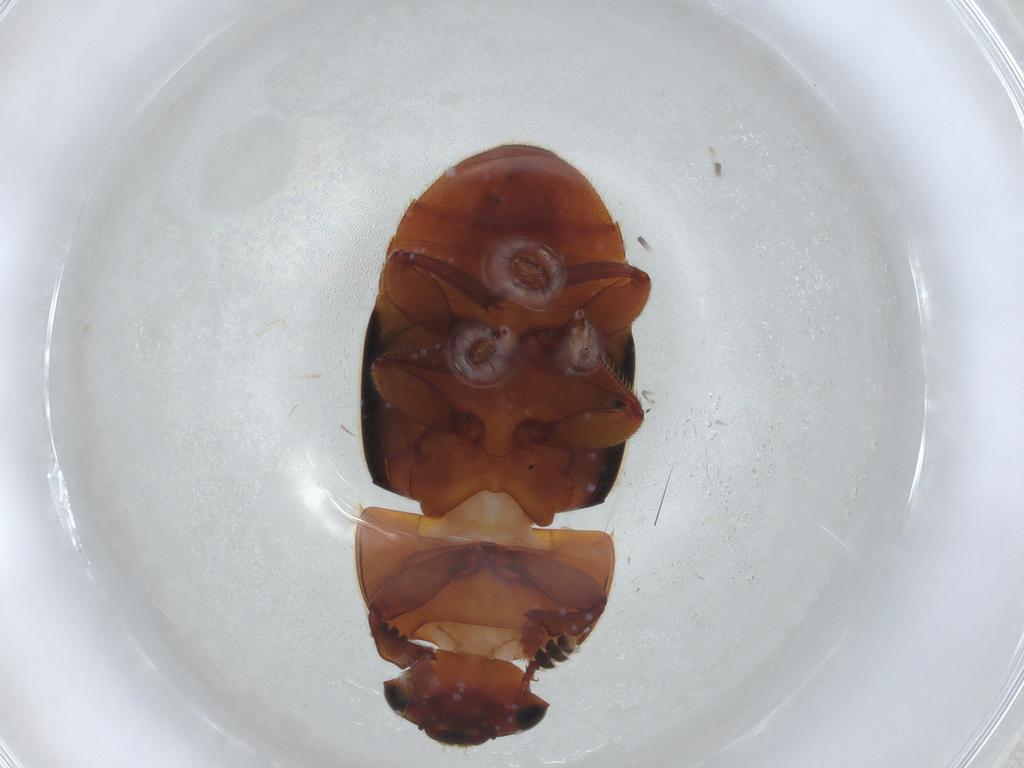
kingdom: Animalia
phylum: Arthropoda
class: Insecta
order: Coleoptera
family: Nitidulidae
